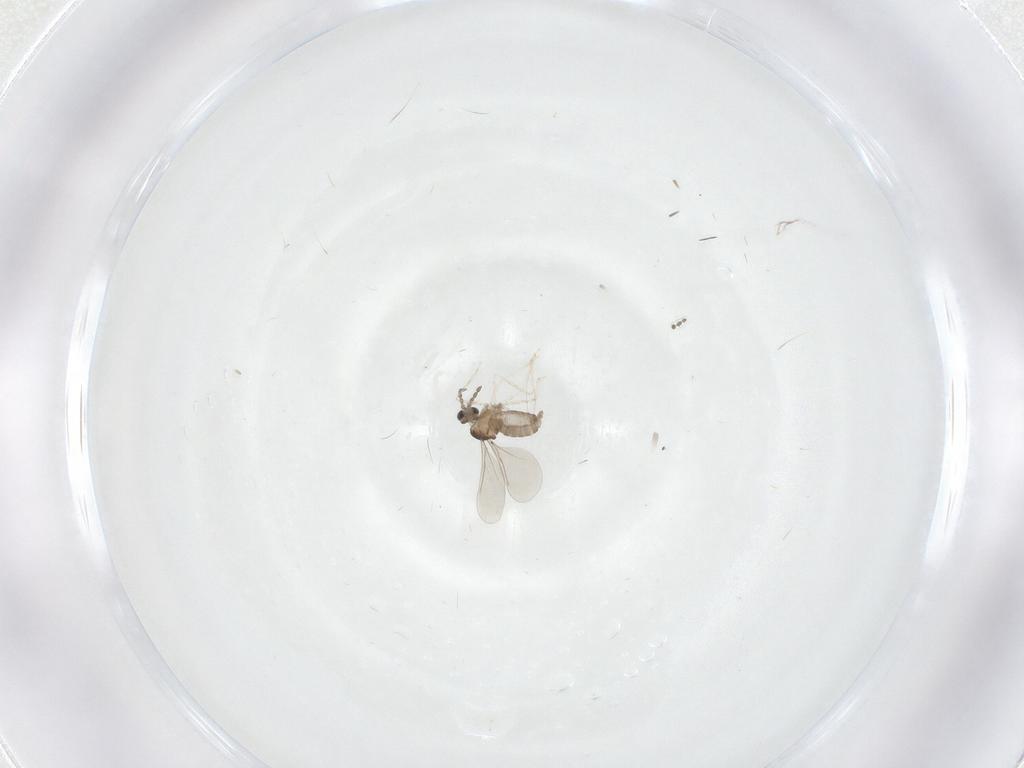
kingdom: Animalia
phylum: Arthropoda
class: Insecta
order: Diptera
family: Cecidomyiidae
